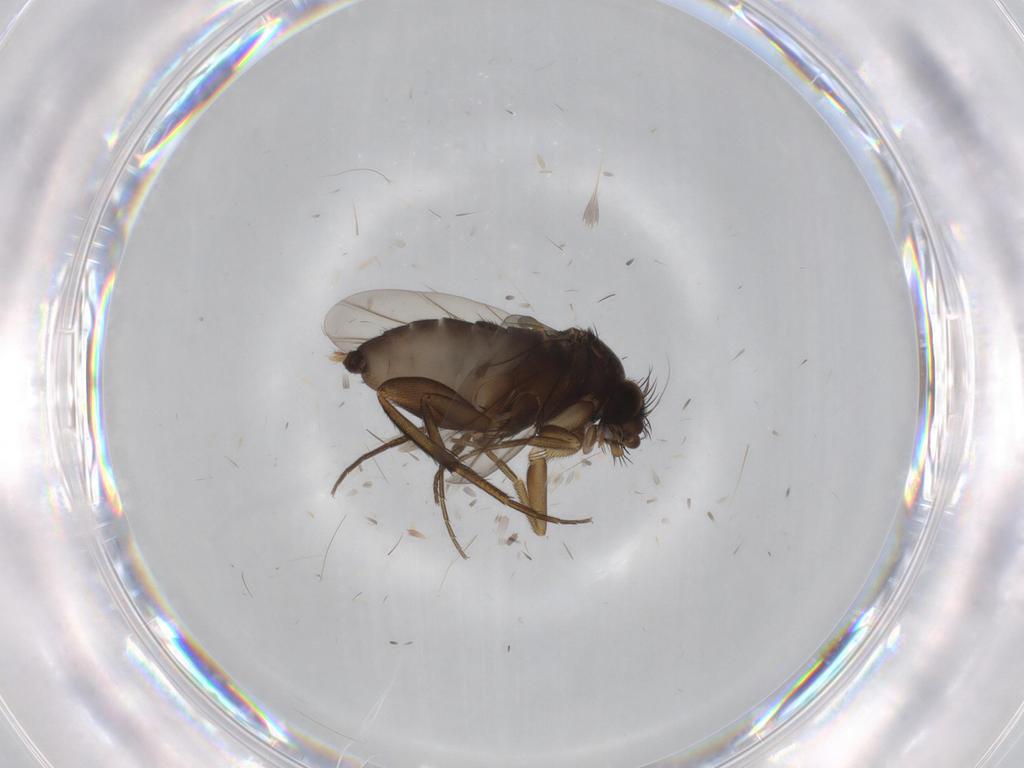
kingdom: Animalia
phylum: Arthropoda
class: Insecta
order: Diptera
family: Phoridae
